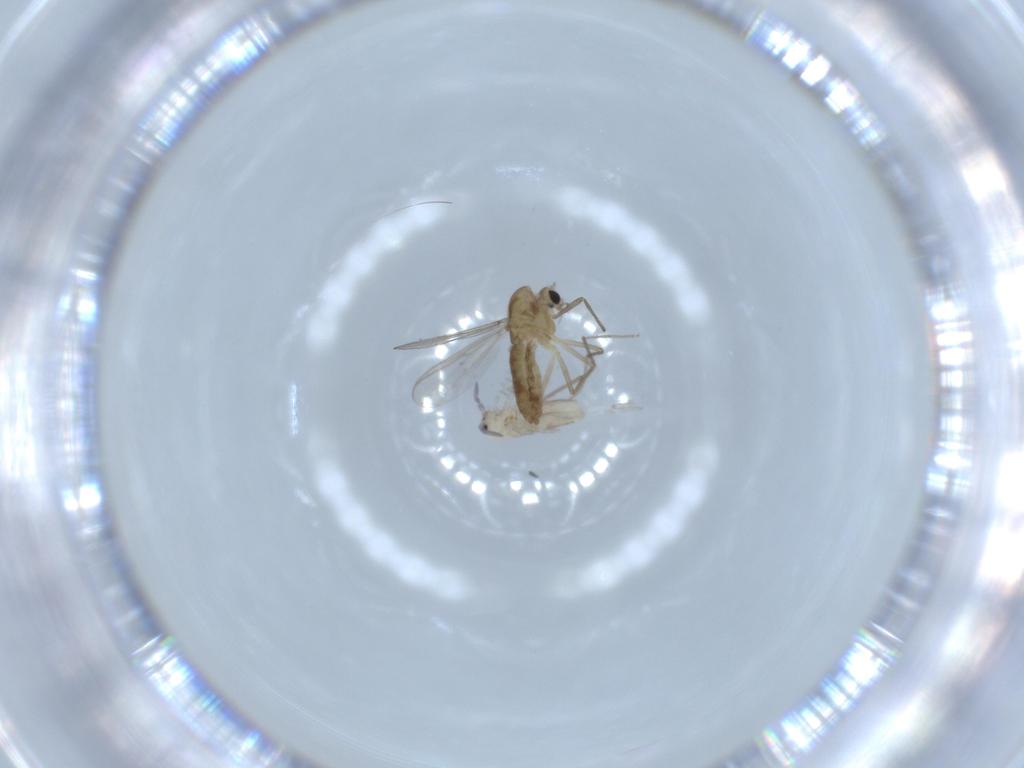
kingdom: Animalia
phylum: Arthropoda
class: Insecta
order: Diptera
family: Chironomidae
